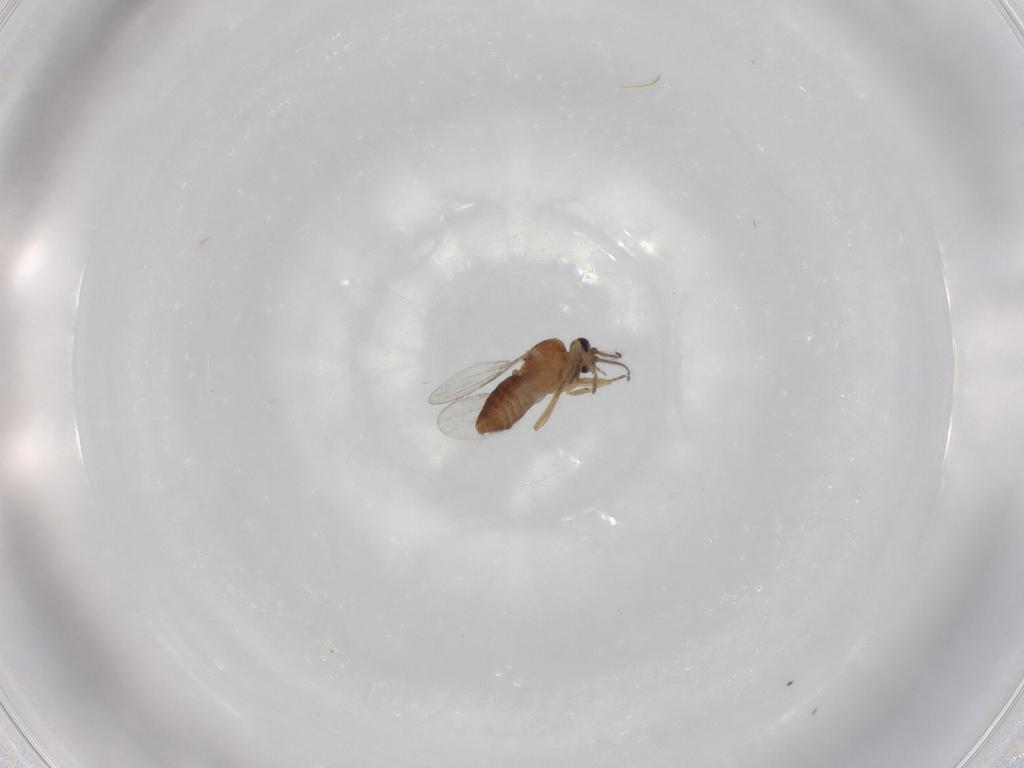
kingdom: Animalia
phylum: Arthropoda
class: Insecta
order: Diptera
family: Ceratopogonidae
